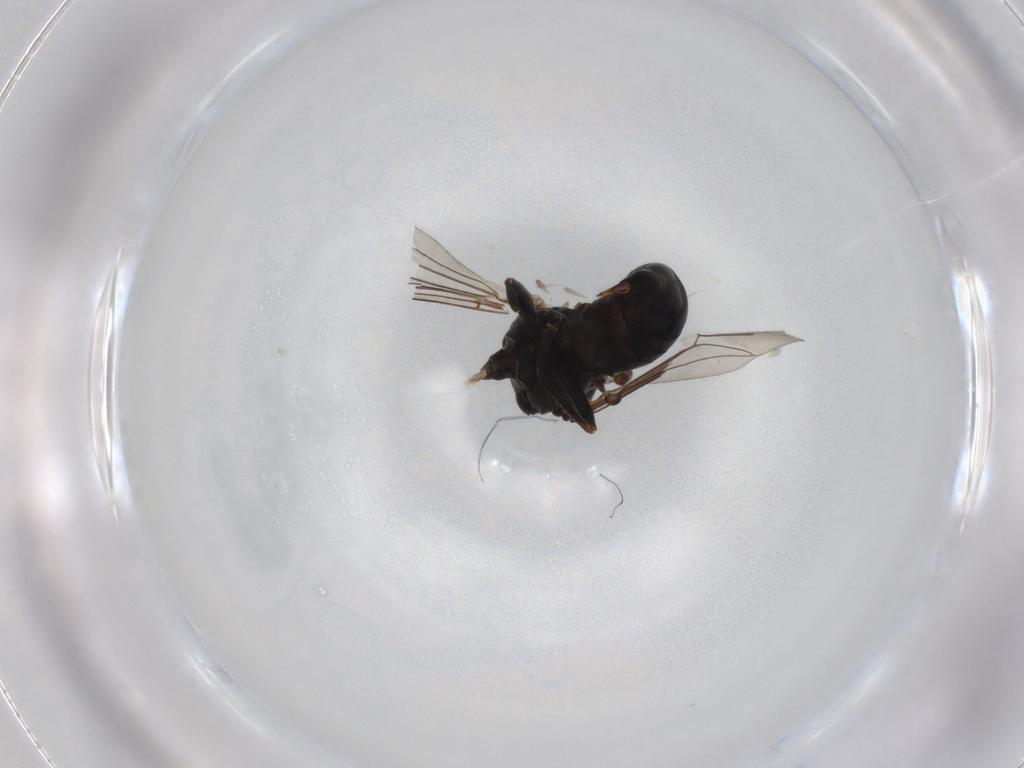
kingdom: Animalia
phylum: Arthropoda
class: Insecta
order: Diptera
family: Pipunculidae
